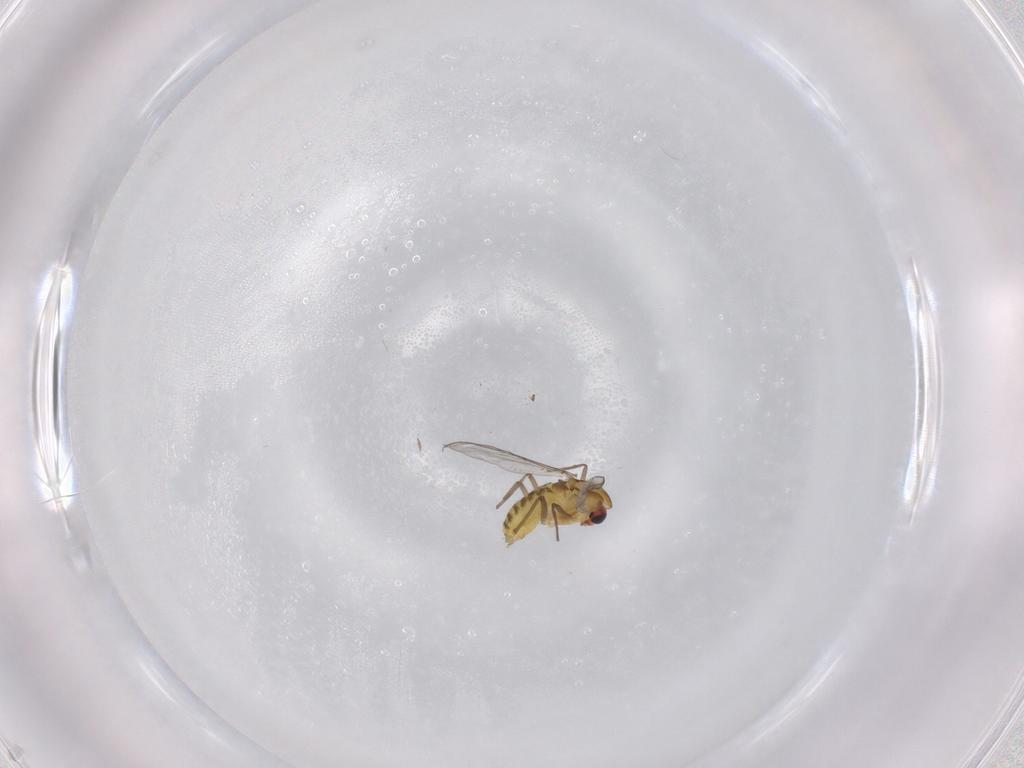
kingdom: Animalia
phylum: Arthropoda
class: Insecta
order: Diptera
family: Chironomidae
